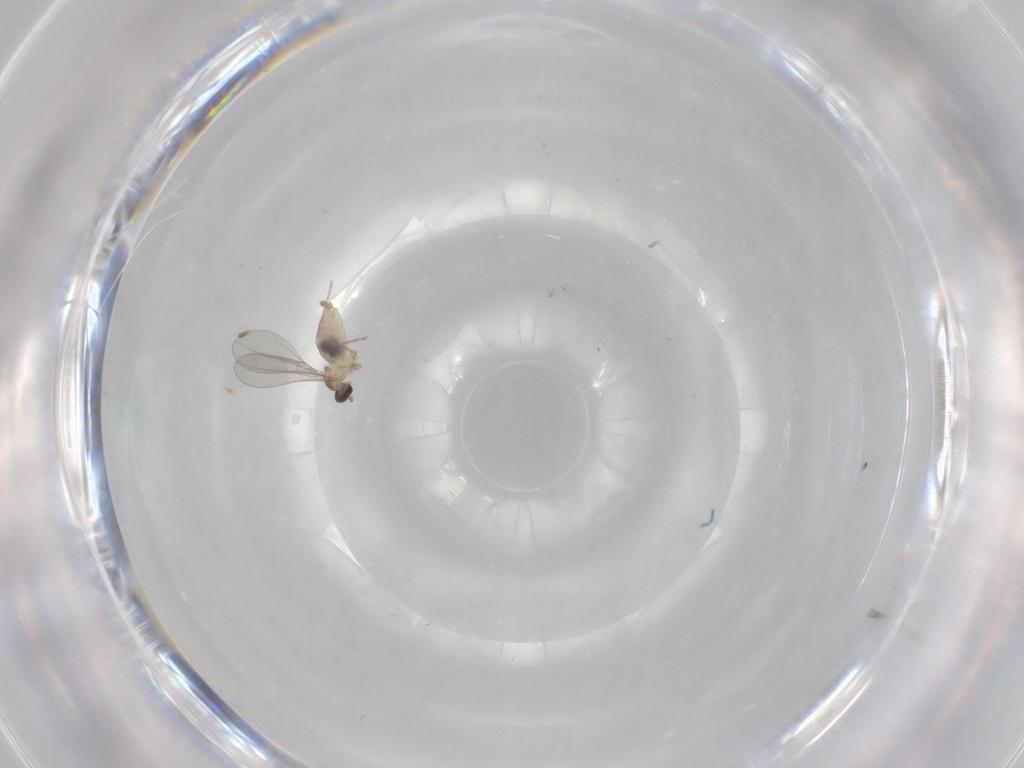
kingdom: Animalia
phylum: Arthropoda
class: Insecta
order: Diptera
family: Cecidomyiidae
